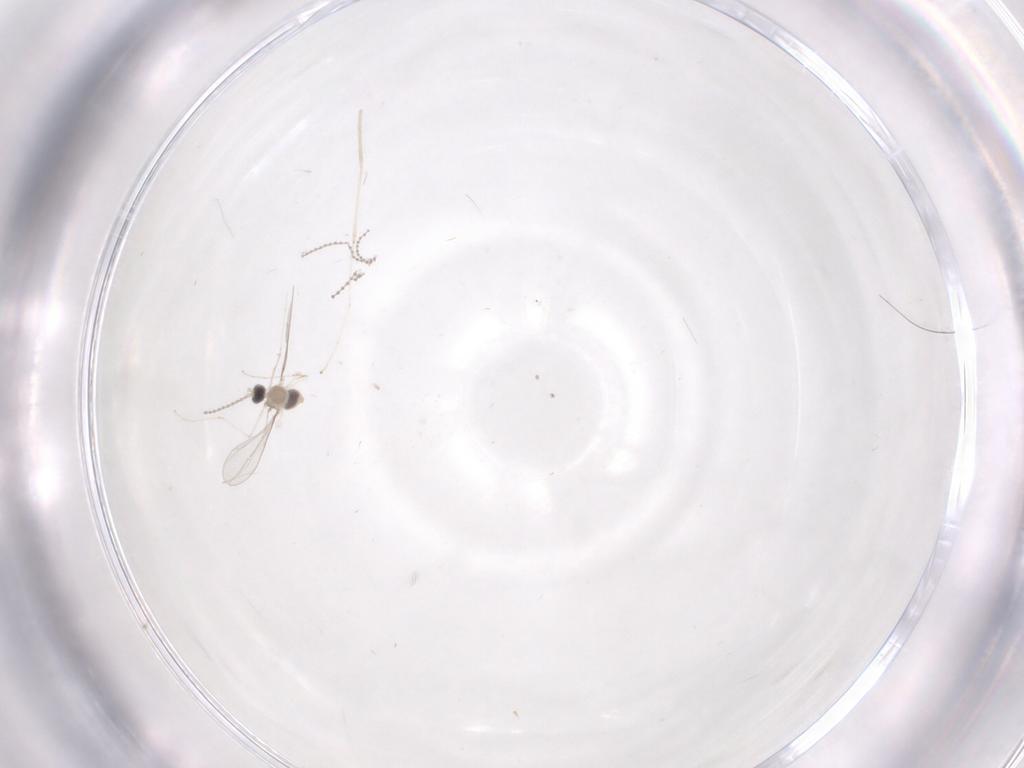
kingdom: Animalia
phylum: Arthropoda
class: Insecta
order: Diptera
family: Cecidomyiidae
